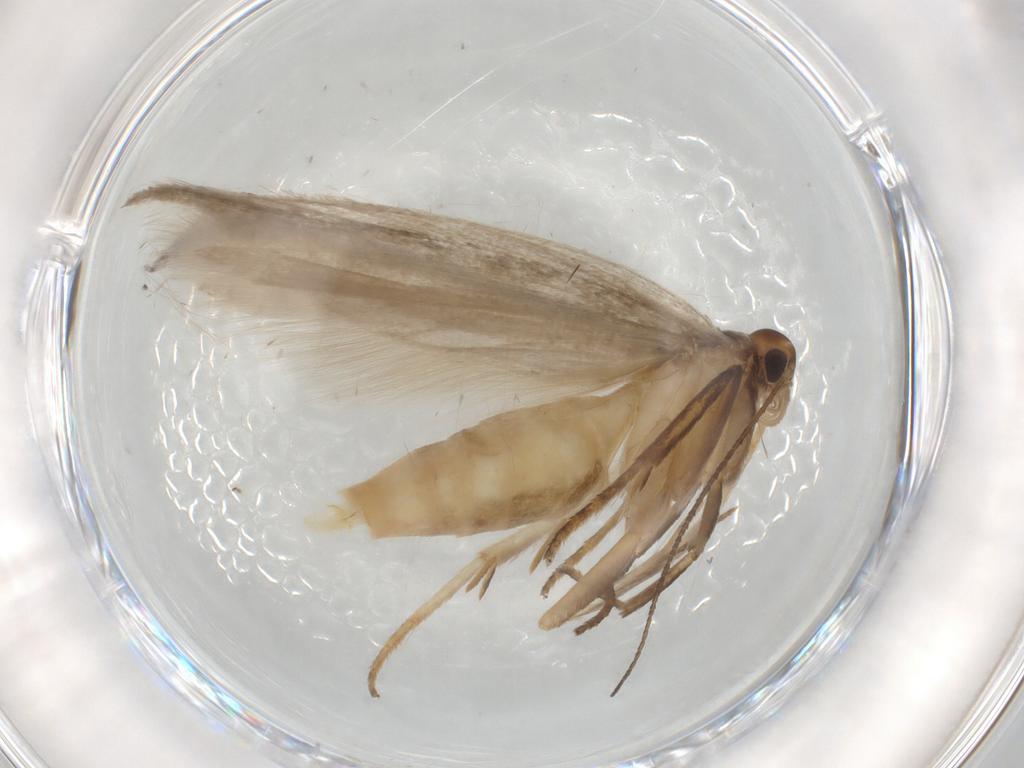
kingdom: Animalia
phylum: Arthropoda
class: Insecta
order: Lepidoptera
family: Gelechiidae
